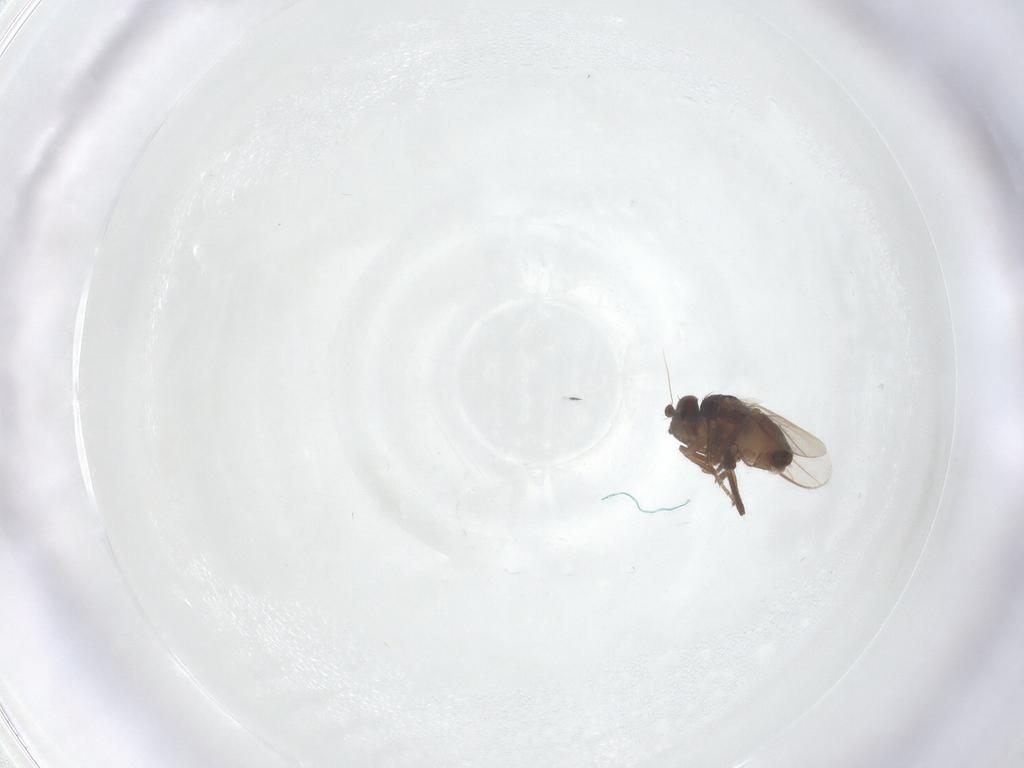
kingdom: Animalia
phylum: Arthropoda
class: Insecta
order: Diptera
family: Sphaeroceridae
